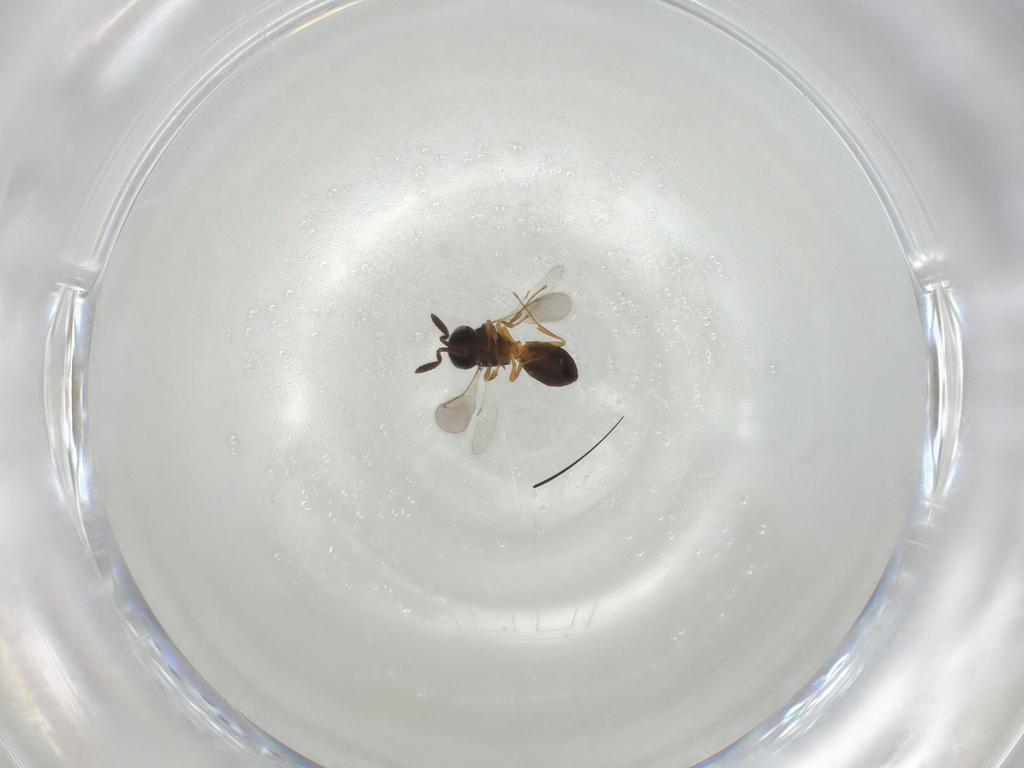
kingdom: Animalia
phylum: Arthropoda
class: Insecta
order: Hymenoptera
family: Scelionidae
